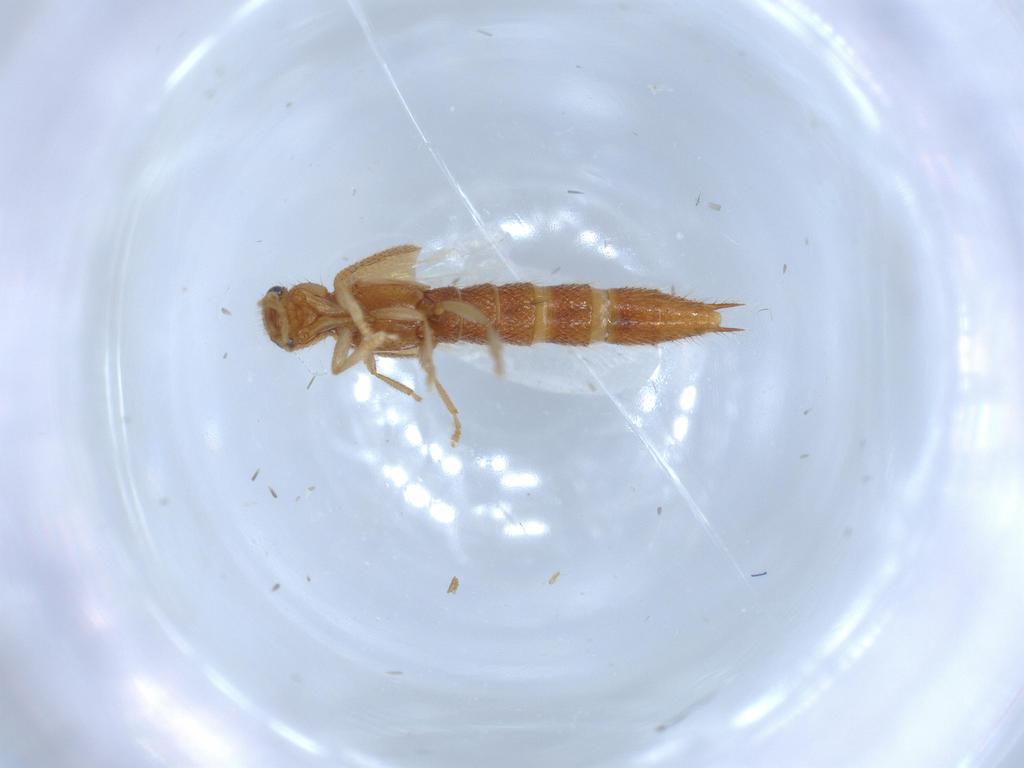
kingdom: Animalia
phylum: Arthropoda
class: Insecta
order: Coleoptera
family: Staphylinidae
